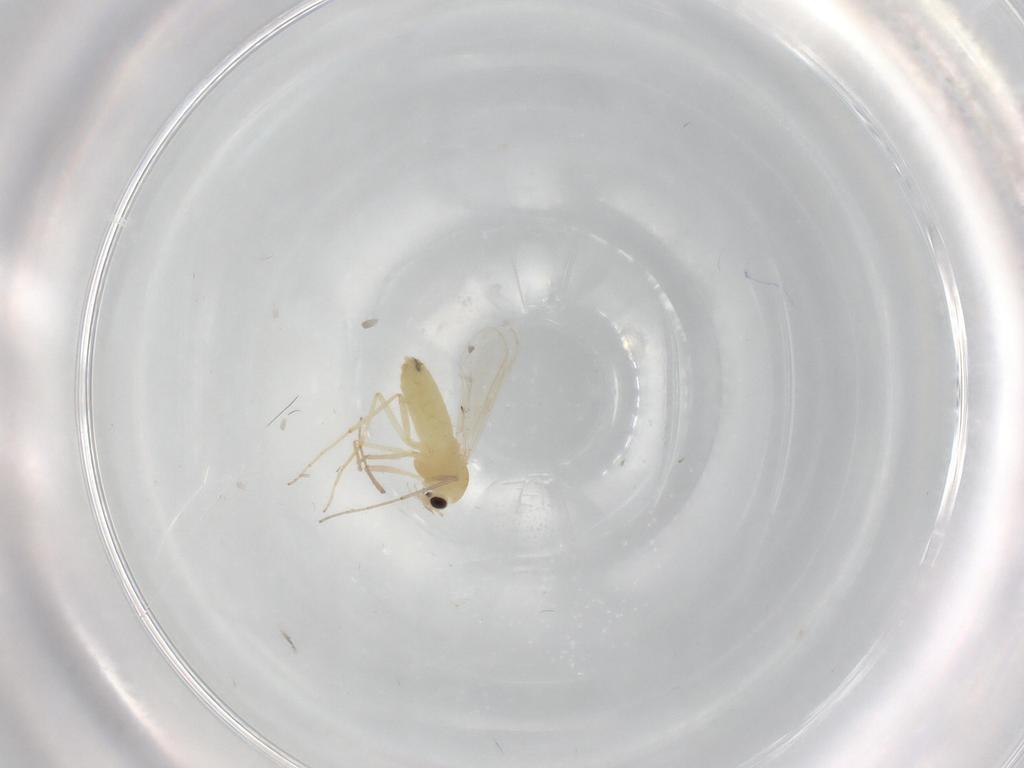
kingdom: Animalia
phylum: Arthropoda
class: Insecta
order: Diptera
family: Chironomidae
